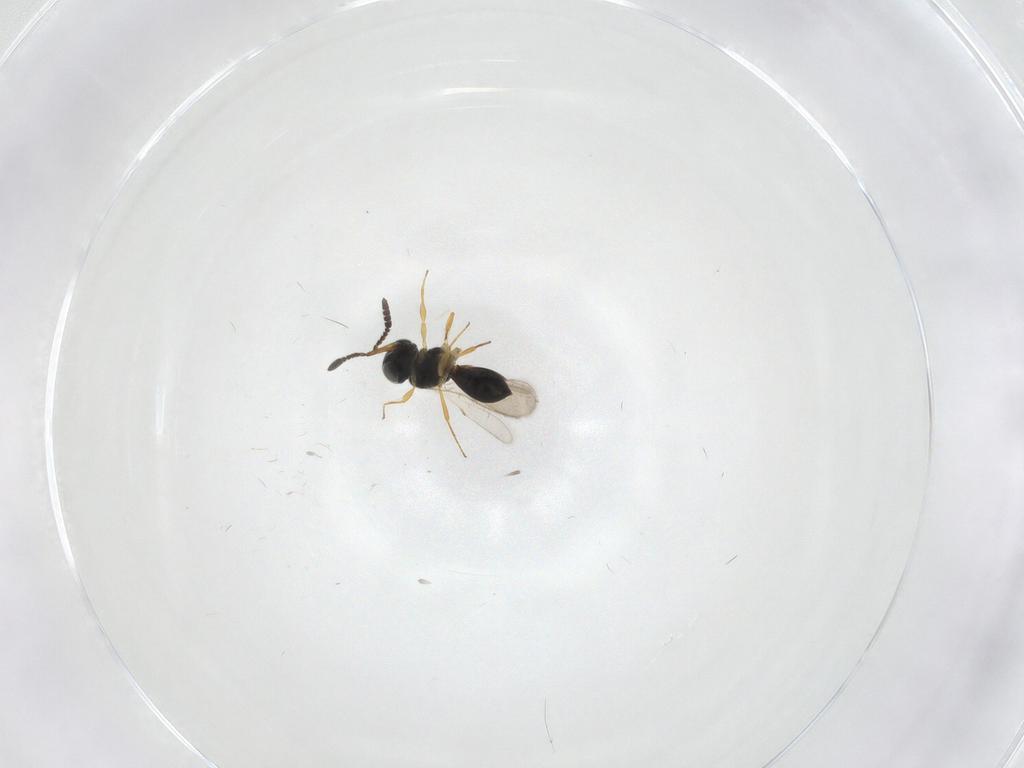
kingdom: Animalia
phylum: Arthropoda
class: Insecta
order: Hymenoptera
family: Scelionidae
